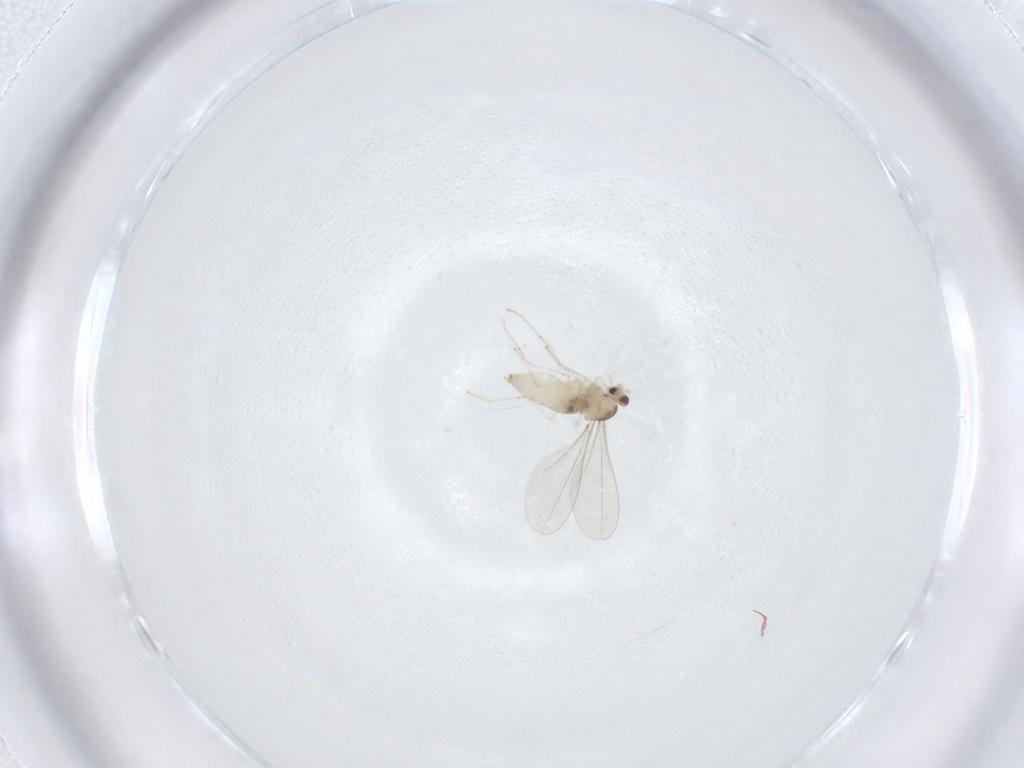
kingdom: Animalia
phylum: Arthropoda
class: Insecta
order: Diptera
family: Cecidomyiidae
